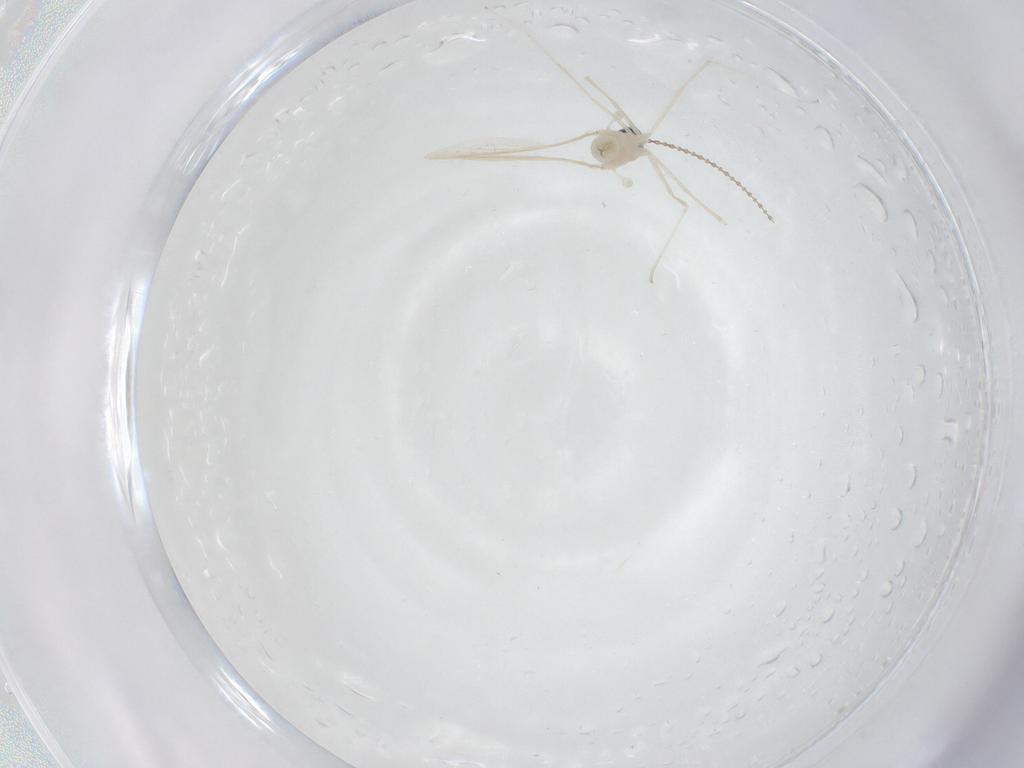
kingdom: Animalia
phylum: Arthropoda
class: Insecta
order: Diptera
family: Cecidomyiidae
